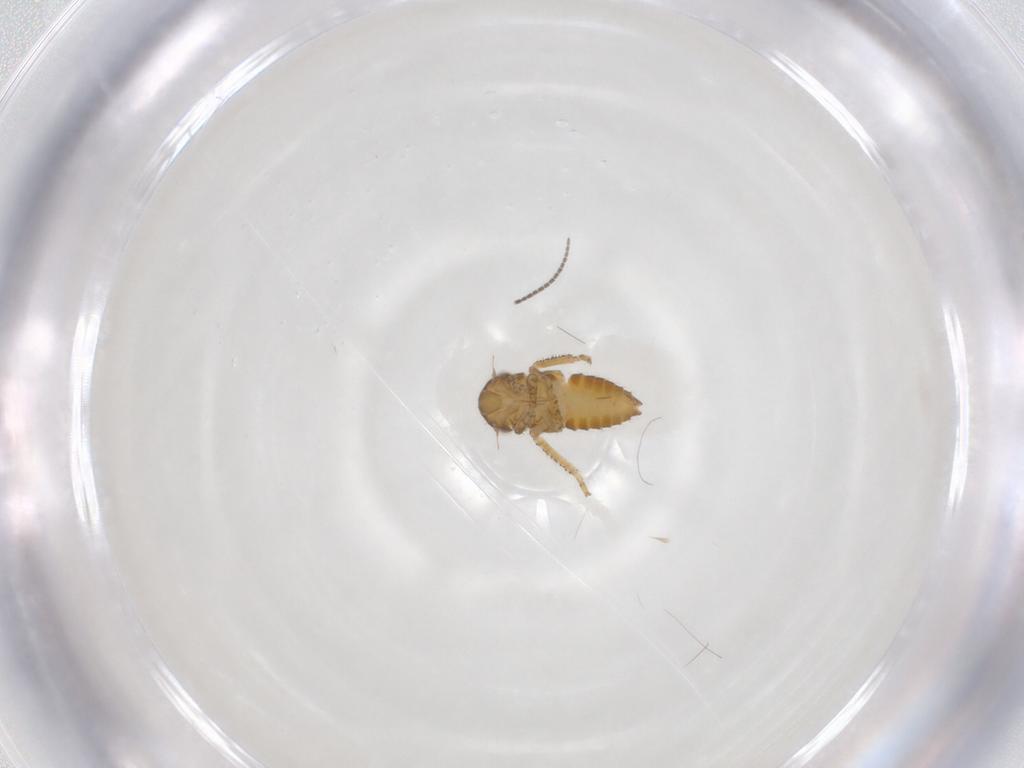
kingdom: Animalia
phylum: Arthropoda
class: Insecta
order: Hemiptera
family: Cicadellidae
